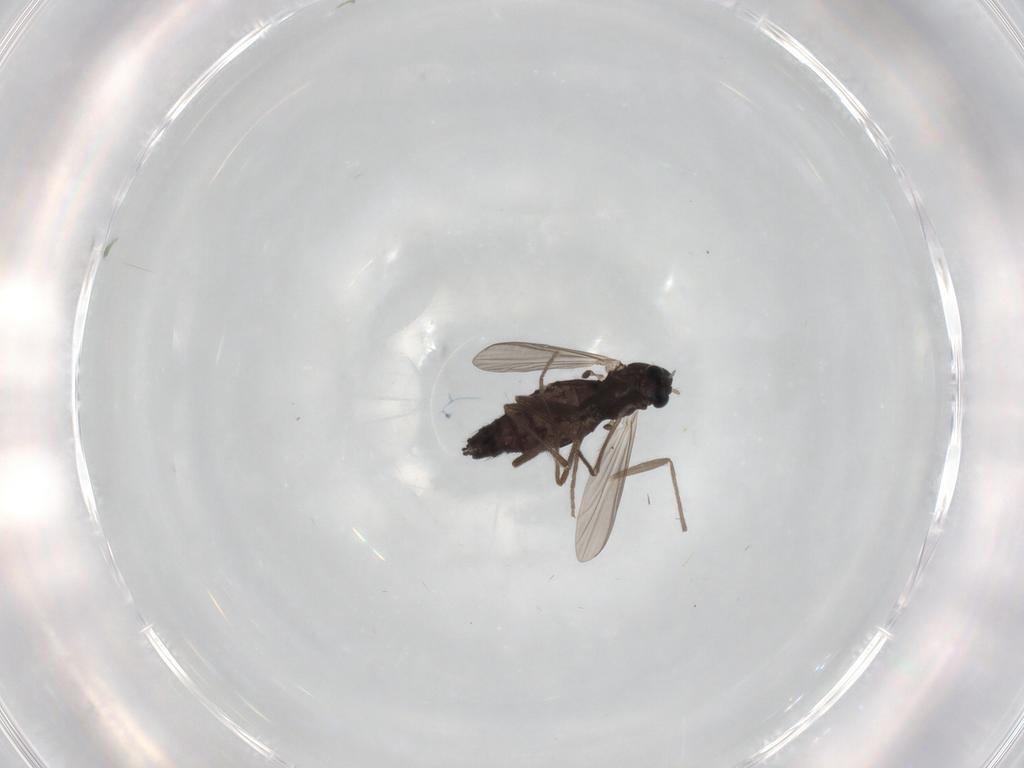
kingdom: Animalia
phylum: Arthropoda
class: Insecta
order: Diptera
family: Chironomidae
